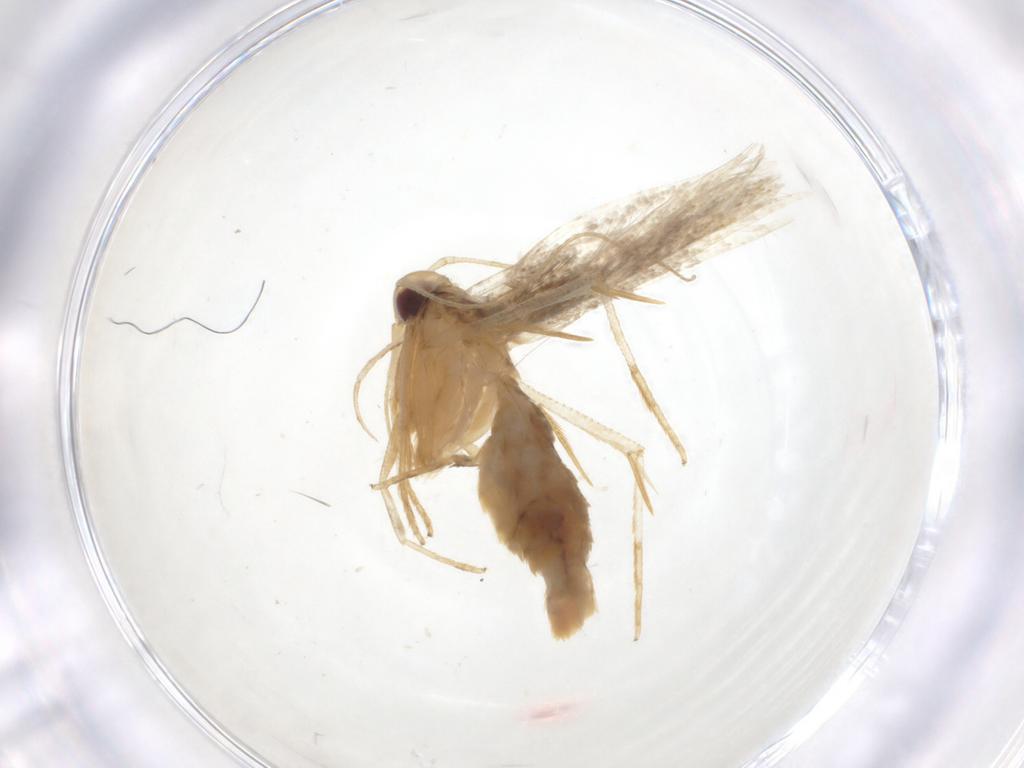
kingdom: Animalia
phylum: Arthropoda
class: Insecta
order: Lepidoptera
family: Cosmopterigidae
